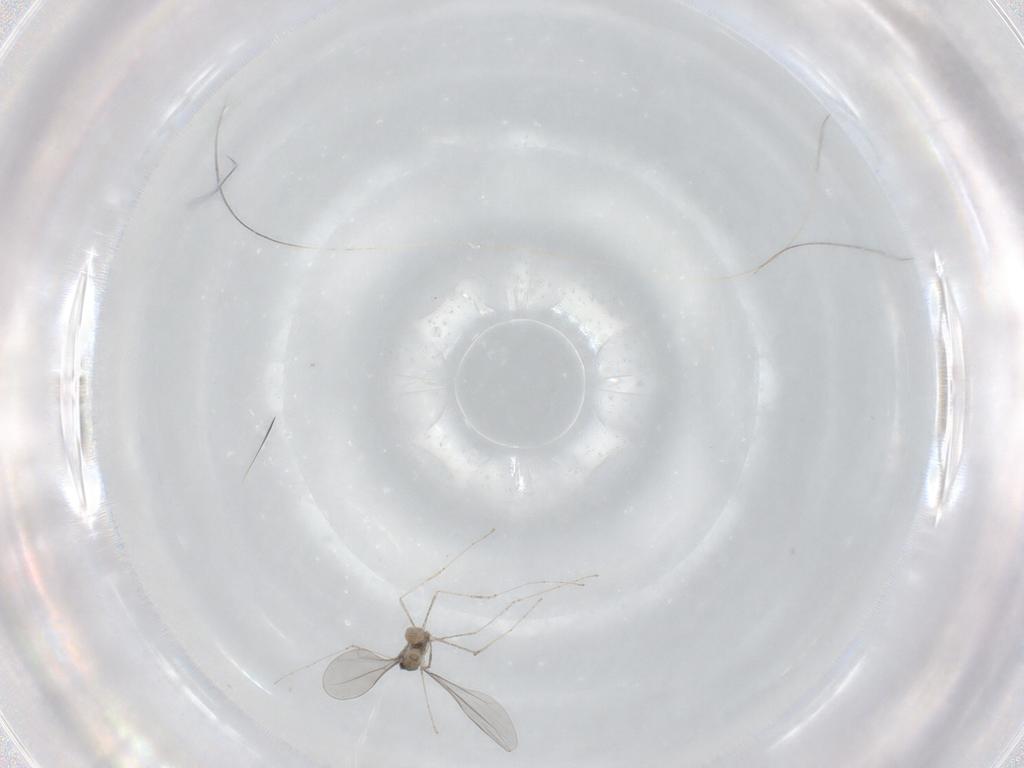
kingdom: Animalia
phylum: Arthropoda
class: Insecta
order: Diptera
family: Cecidomyiidae
